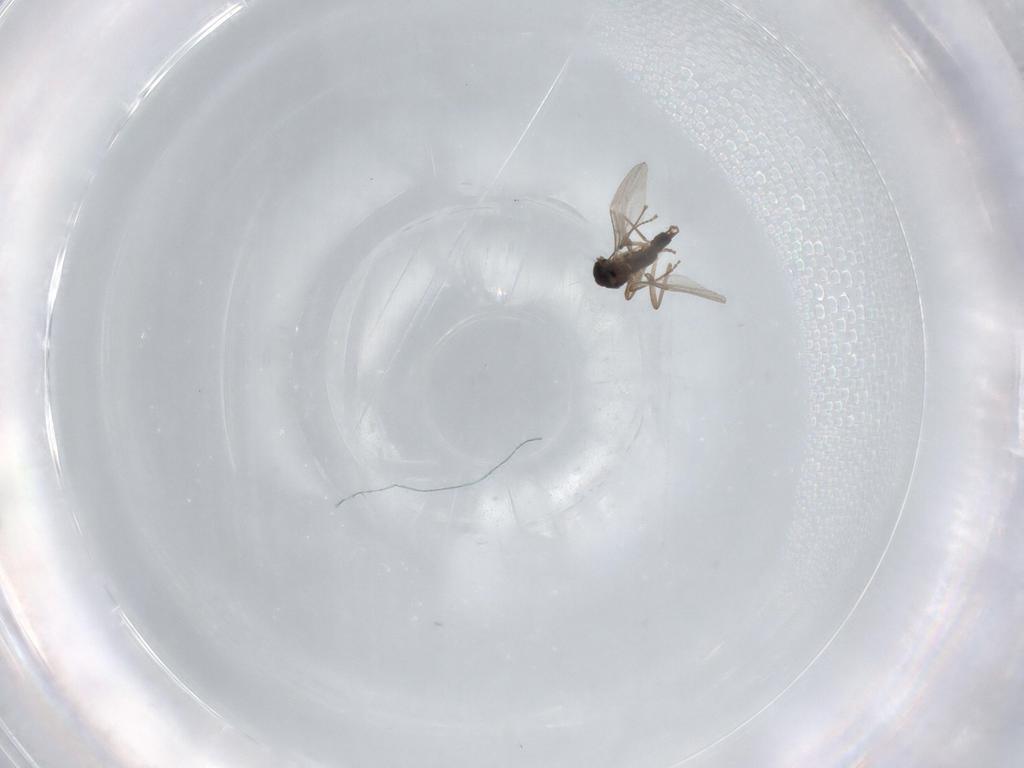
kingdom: Animalia
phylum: Arthropoda
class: Insecta
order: Diptera
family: Cecidomyiidae
